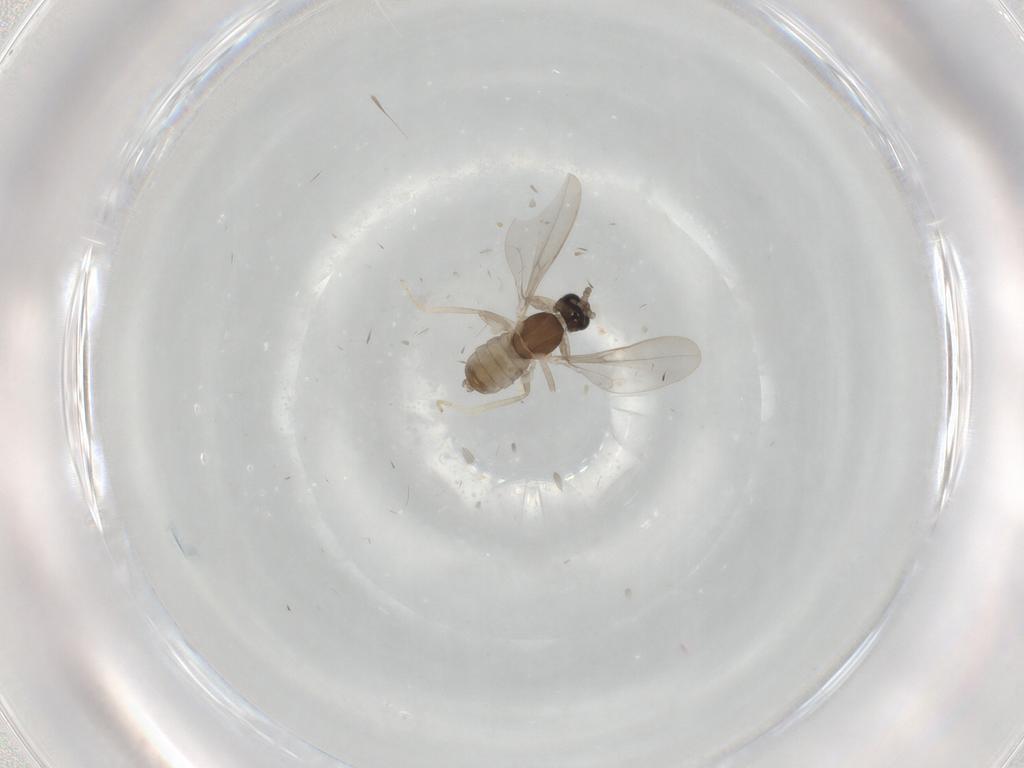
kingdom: Animalia
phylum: Arthropoda
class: Insecta
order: Diptera
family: Cecidomyiidae
